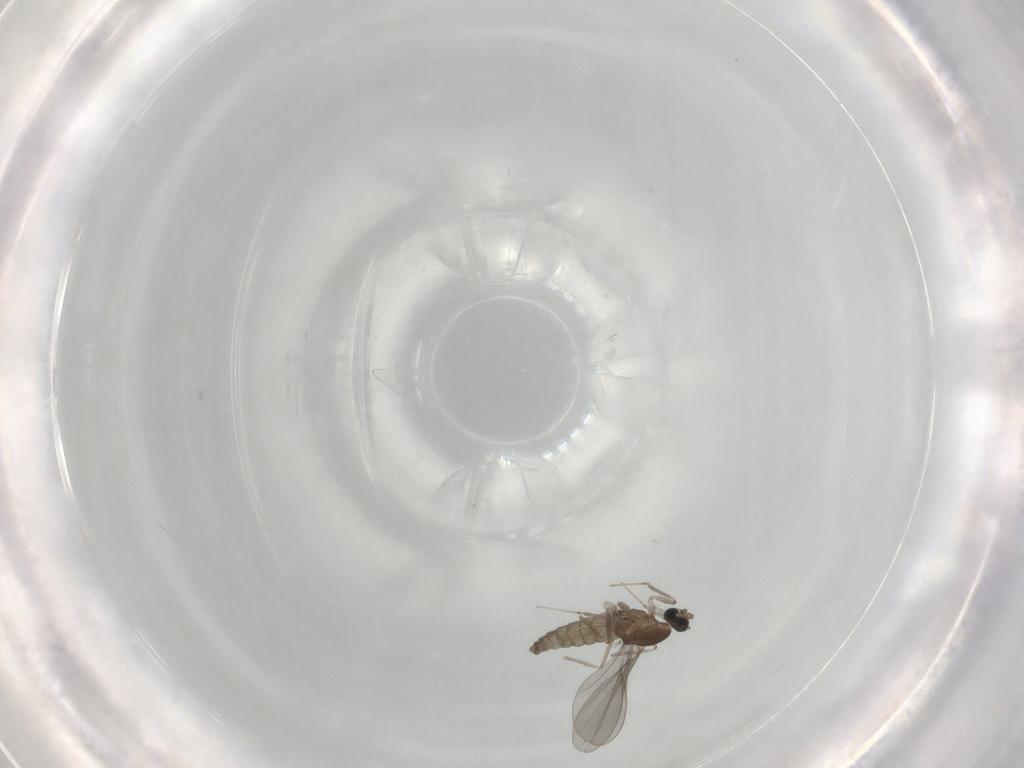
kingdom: Animalia
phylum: Arthropoda
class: Insecta
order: Diptera
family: Cecidomyiidae
